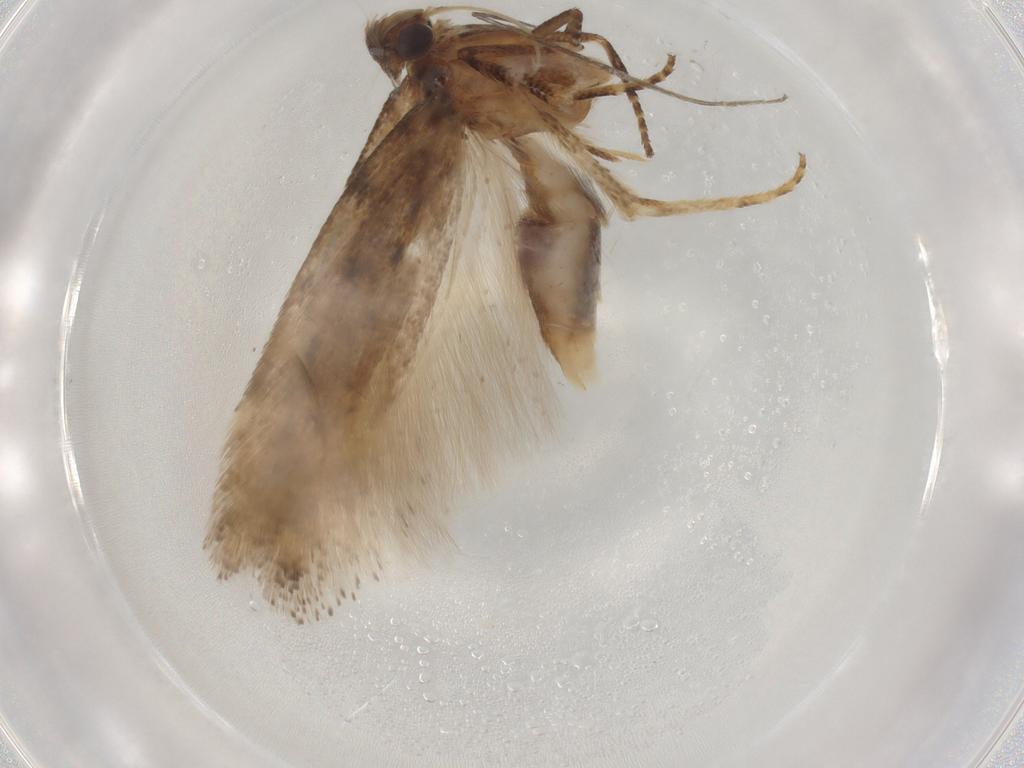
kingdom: Animalia
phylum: Arthropoda
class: Insecta
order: Lepidoptera
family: Gelechiidae
